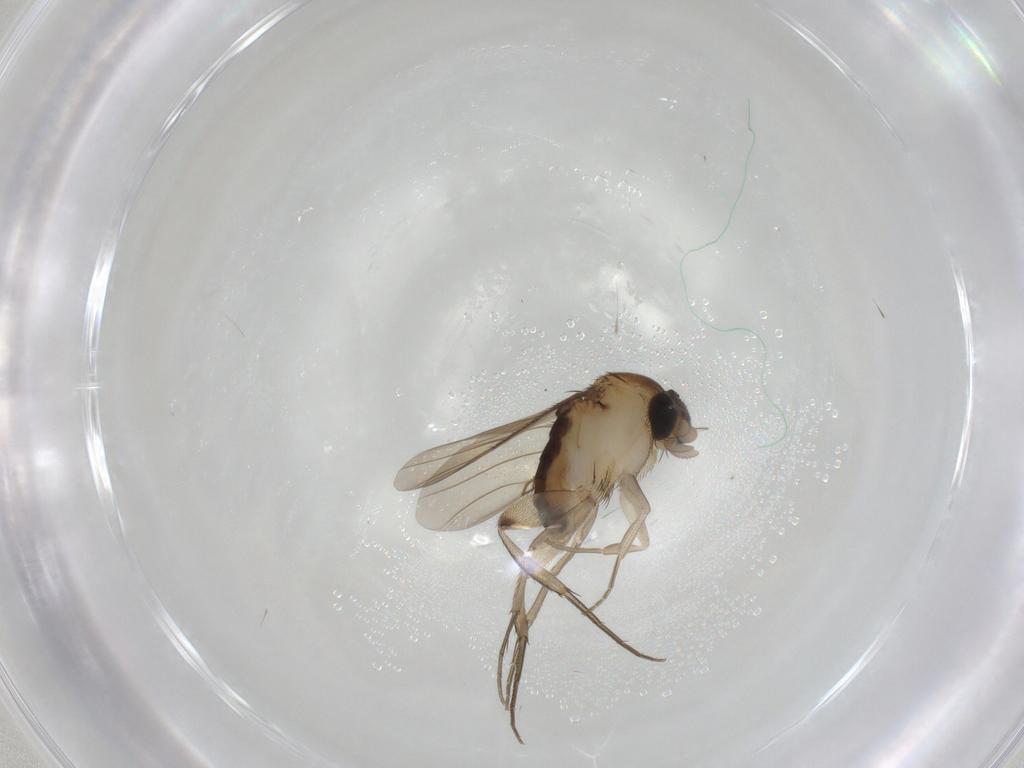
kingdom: Animalia
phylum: Arthropoda
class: Insecta
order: Diptera
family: Phoridae
